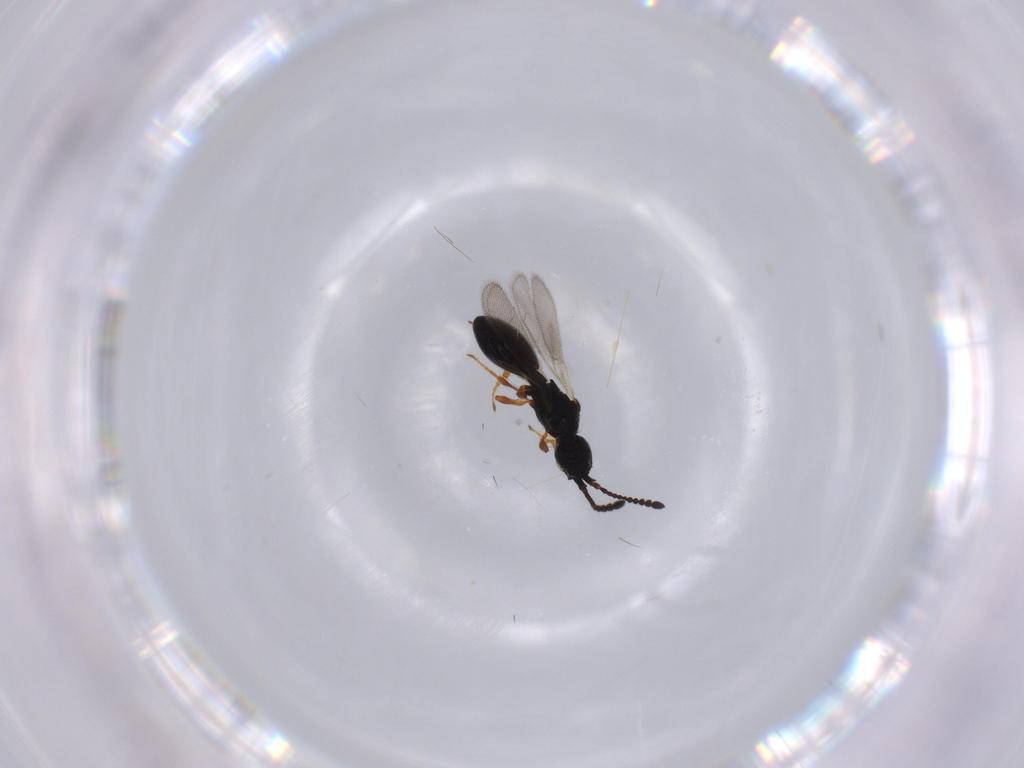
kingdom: Animalia
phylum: Arthropoda
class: Insecta
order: Hymenoptera
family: Diapriidae
